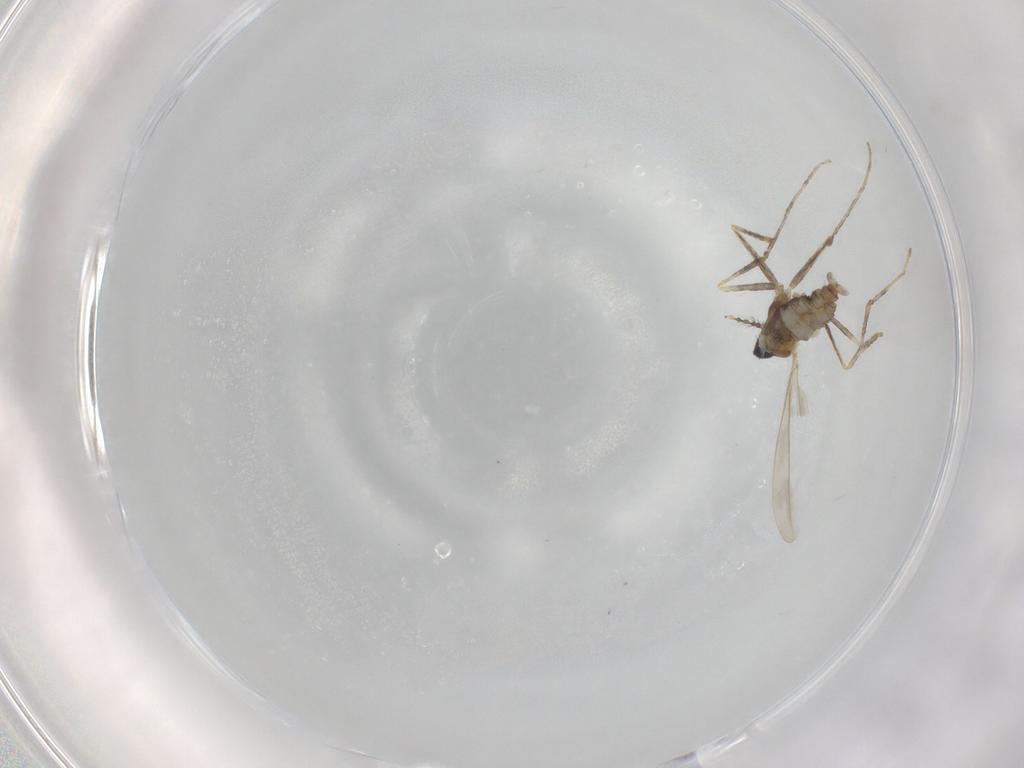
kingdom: Animalia
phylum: Arthropoda
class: Insecta
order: Diptera
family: Cecidomyiidae
